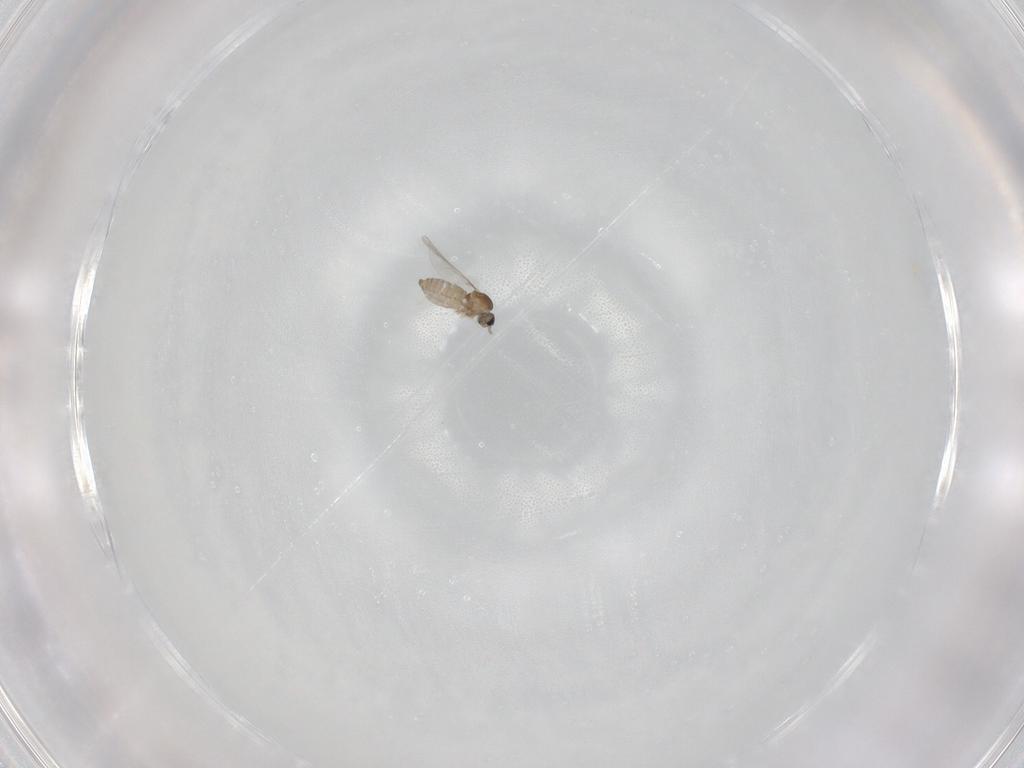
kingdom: Animalia
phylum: Arthropoda
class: Insecta
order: Diptera
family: Cecidomyiidae
